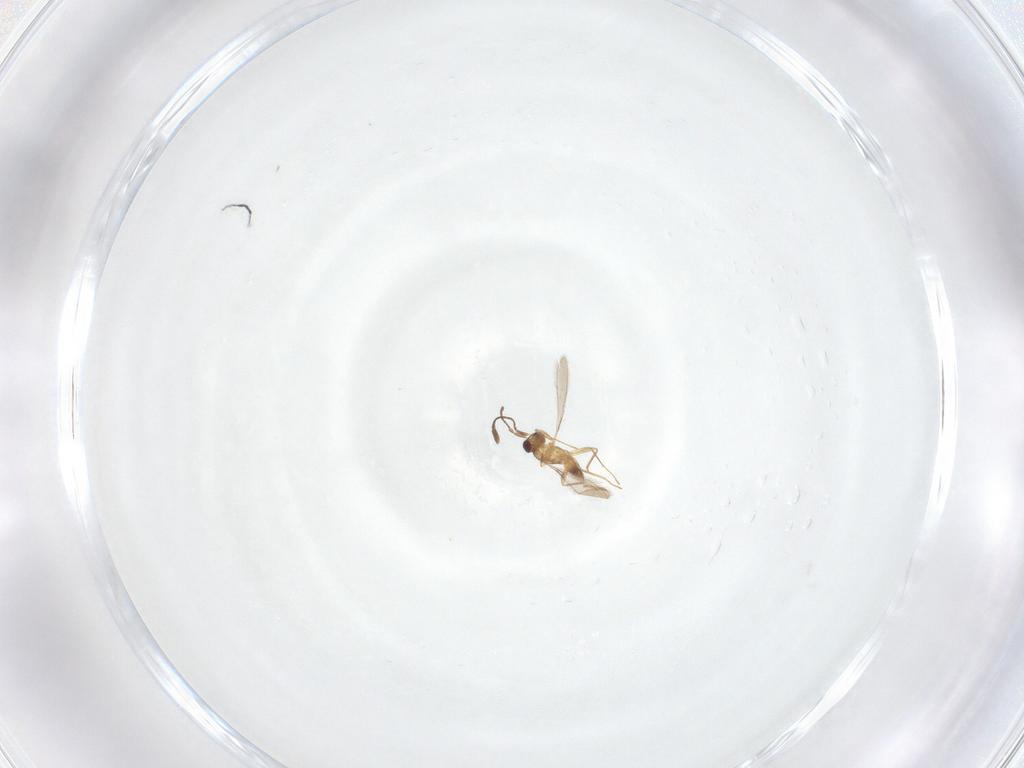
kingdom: Animalia
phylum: Arthropoda
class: Insecta
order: Hymenoptera
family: Mymaridae
